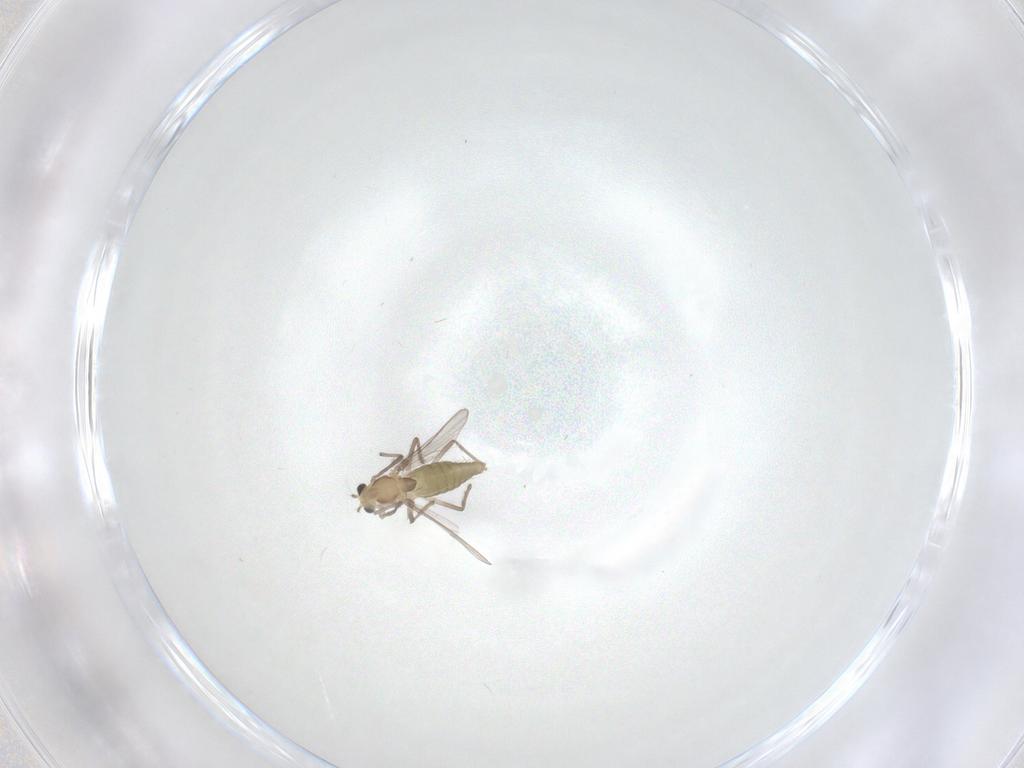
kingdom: Animalia
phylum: Arthropoda
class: Insecta
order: Diptera
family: Chironomidae
